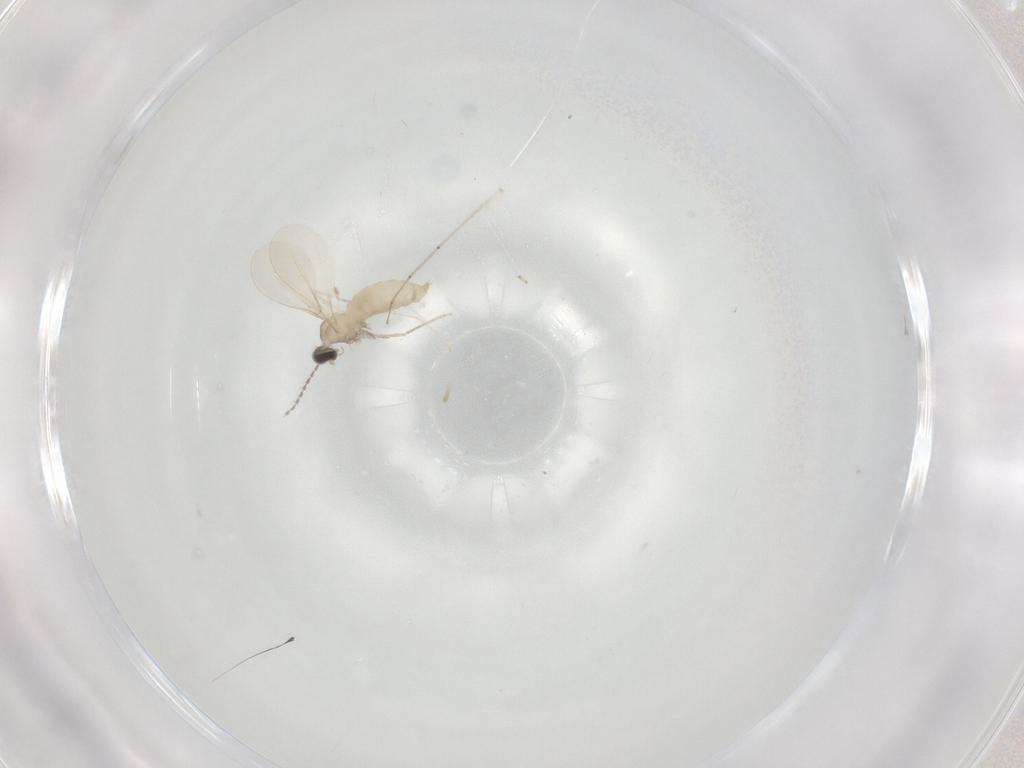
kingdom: Animalia
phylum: Arthropoda
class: Insecta
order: Diptera
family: Cecidomyiidae
